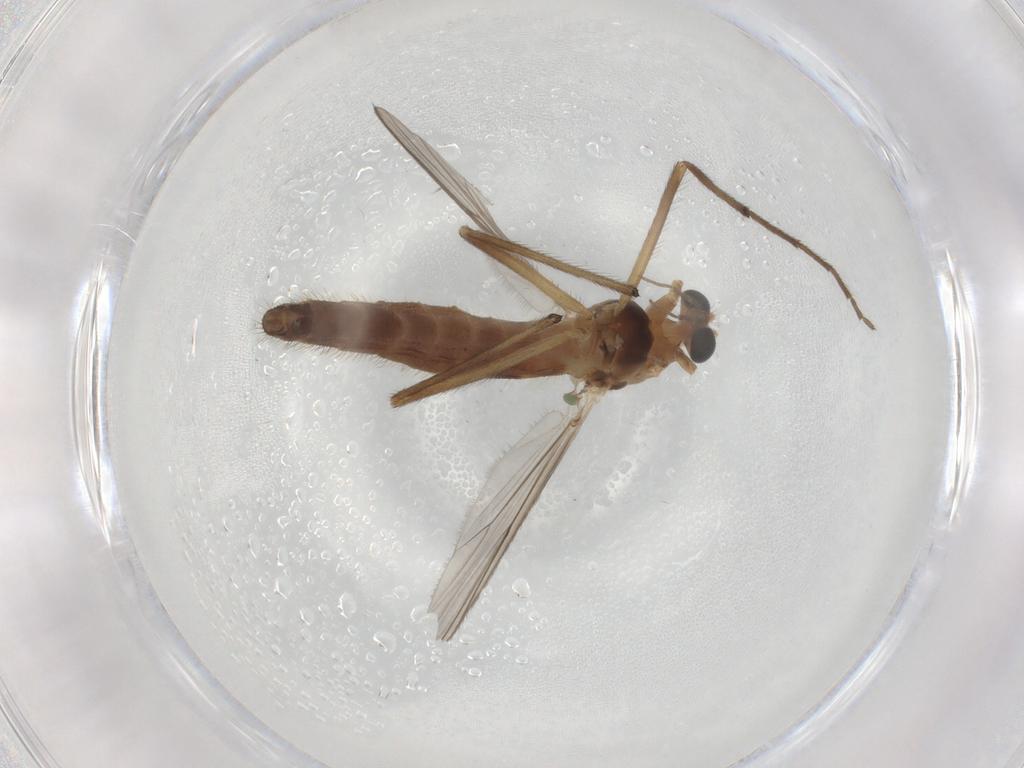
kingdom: Animalia
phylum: Arthropoda
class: Insecta
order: Diptera
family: Chironomidae
